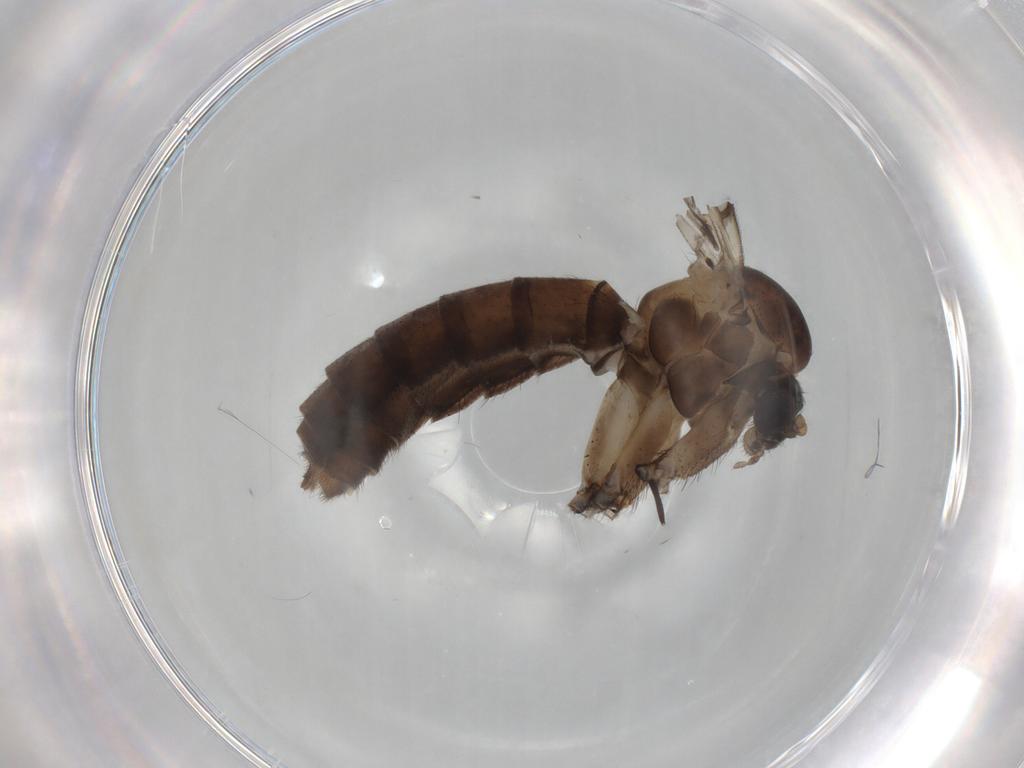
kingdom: Animalia
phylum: Arthropoda
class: Insecta
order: Diptera
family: Mycetophilidae
